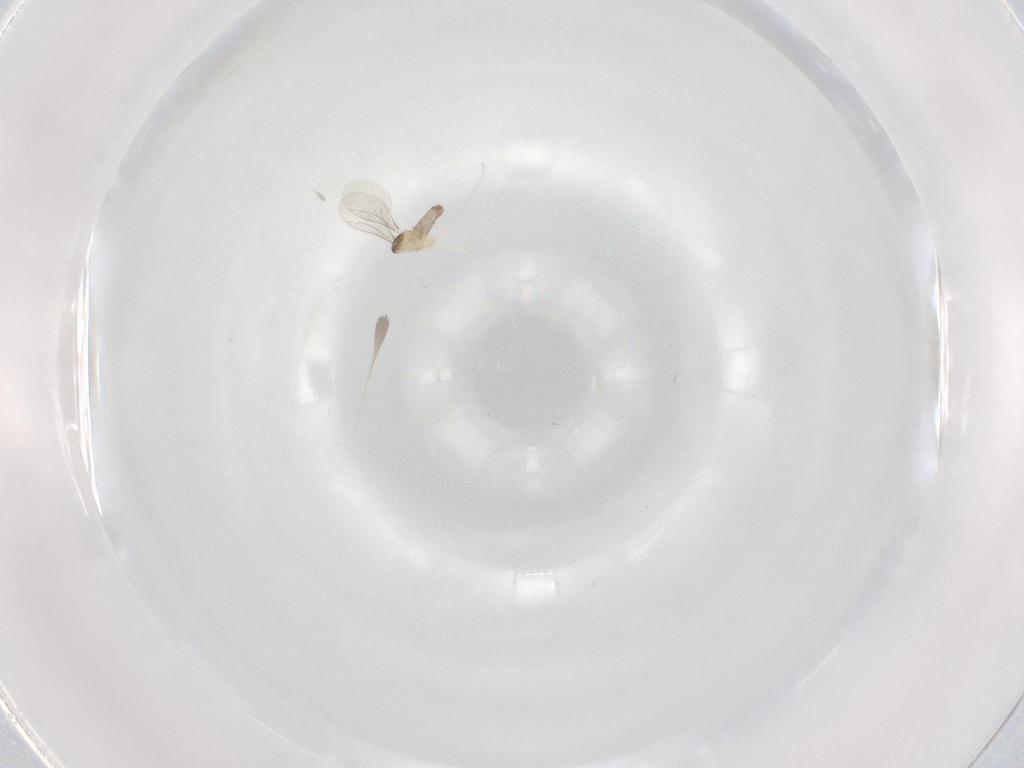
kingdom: Animalia
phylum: Arthropoda
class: Insecta
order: Diptera
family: Cecidomyiidae
